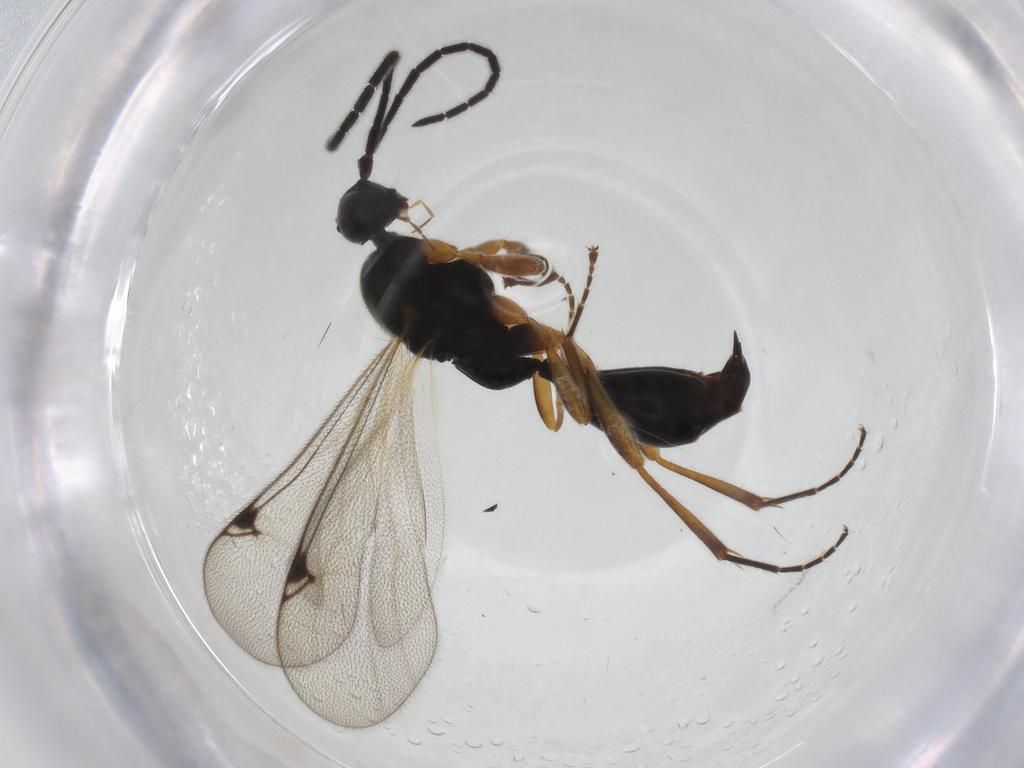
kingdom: Animalia
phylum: Arthropoda
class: Insecta
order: Hymenoptera
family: Proctotrupidae
